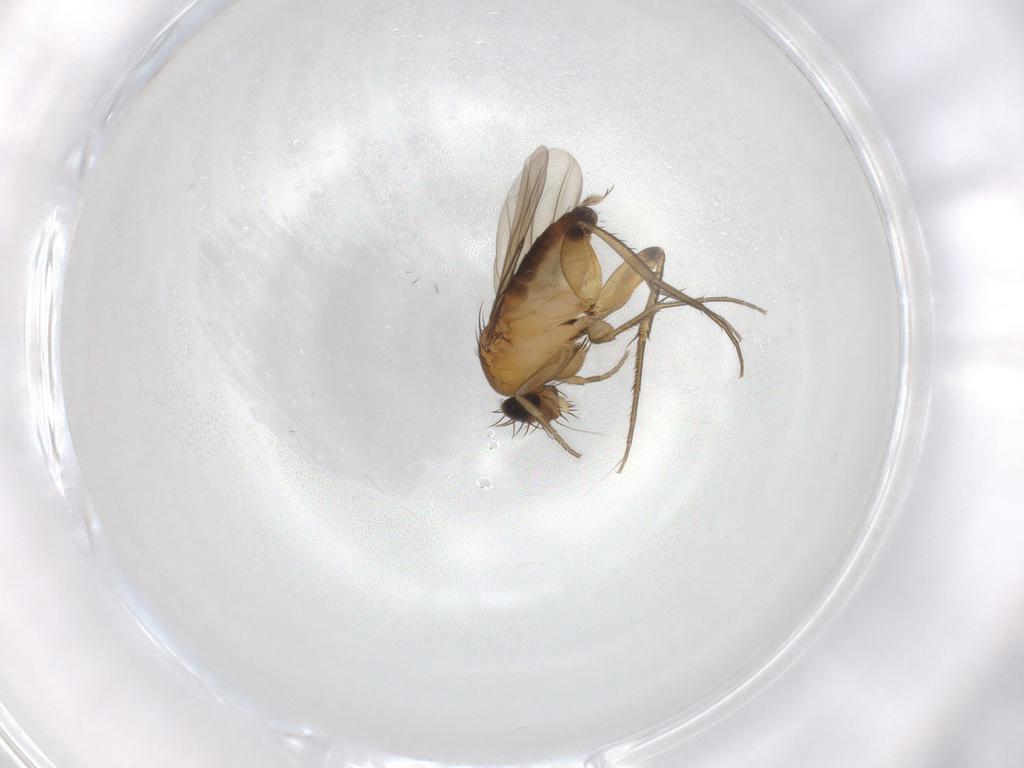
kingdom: Animalia
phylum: Arthropoda
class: Insecta
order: Diptera
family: Phoridae
